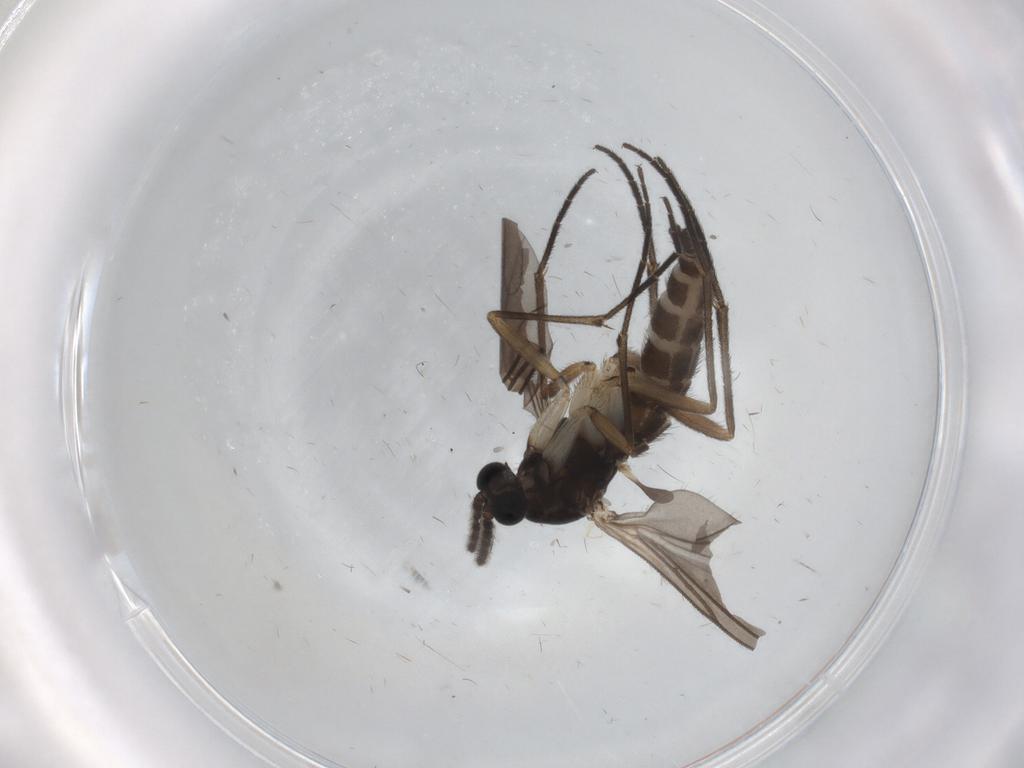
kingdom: Animalia
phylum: Arthropoda
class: Insecta
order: Diptera
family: Sciaridae
